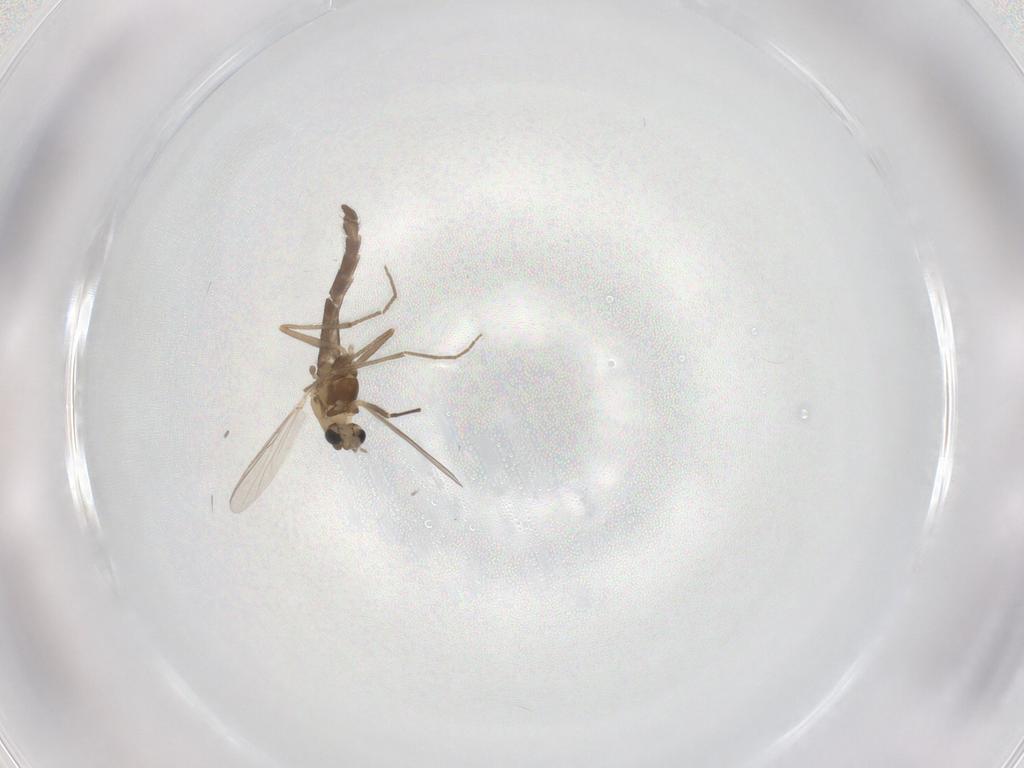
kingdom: Animalia
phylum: Arthropoda
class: Insecta
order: Diptera
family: Chironomidae
